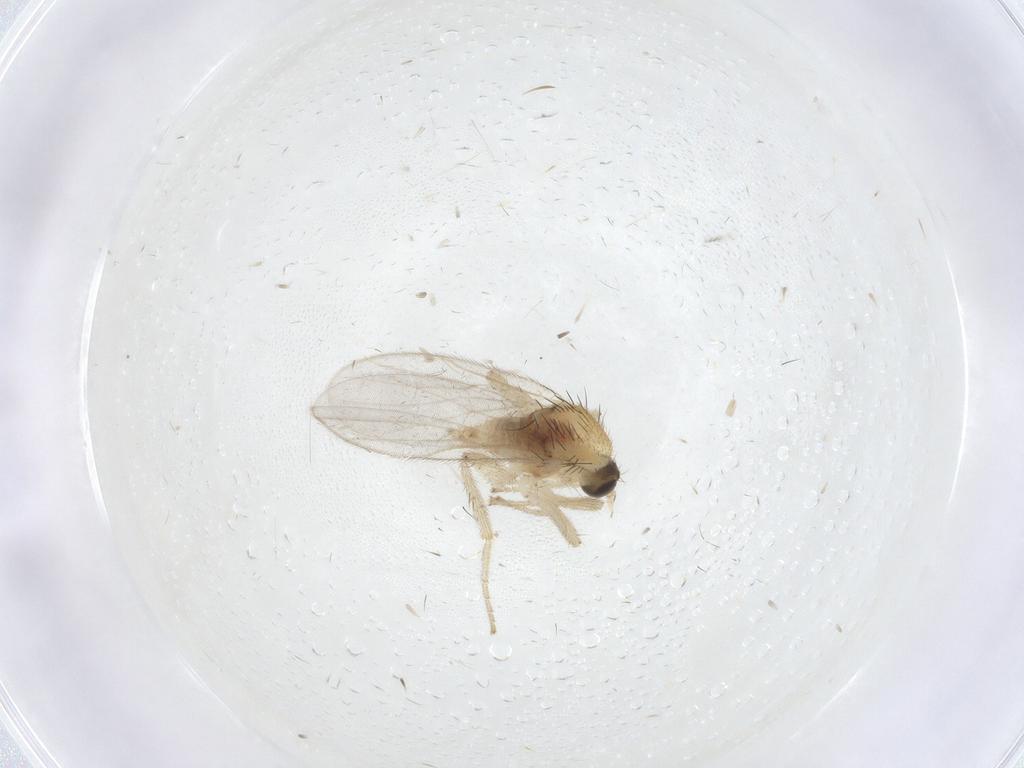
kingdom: Animalia
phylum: Arthropoda
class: Insecta
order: Diptera
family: Hybotidae
